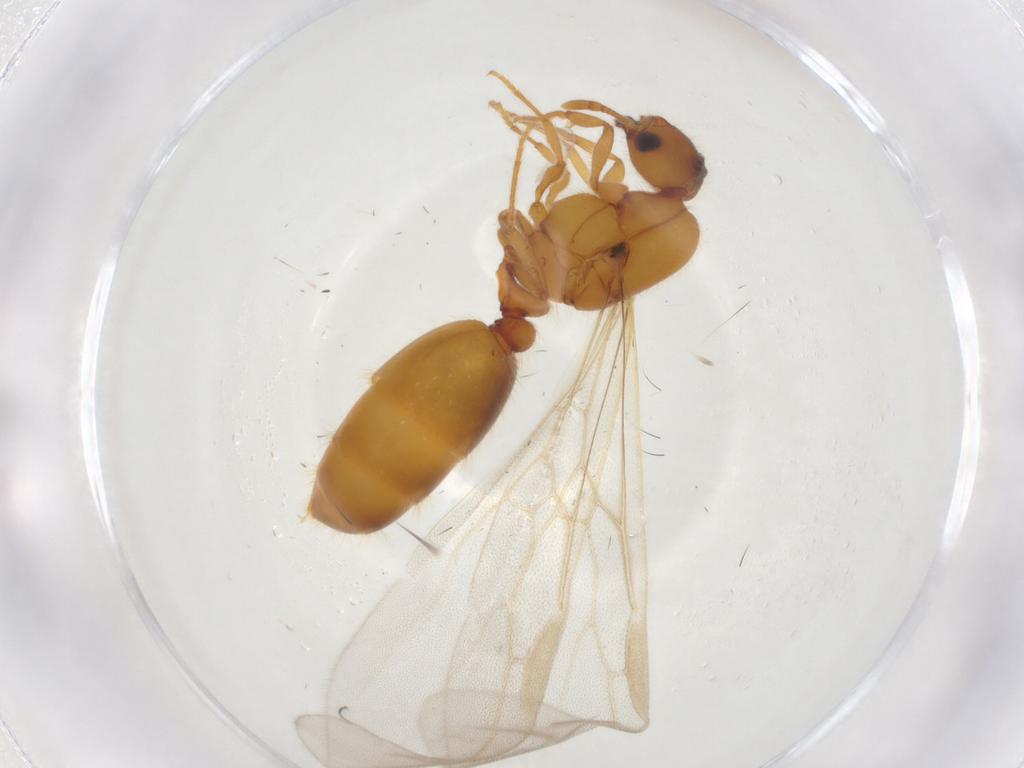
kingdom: Animalia
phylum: Arthropoda
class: Insecta
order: Hymenoptera
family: Formicidae
